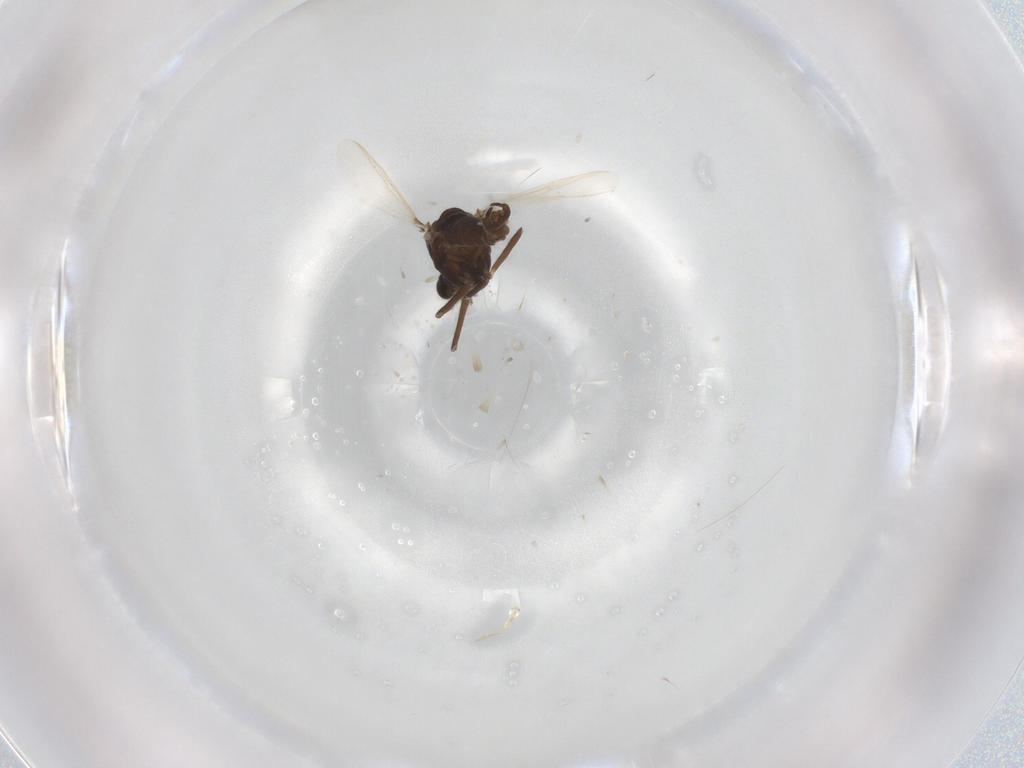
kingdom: Animalia
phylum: Arthropoda
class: Insecta
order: Diptera
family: Chironomidae
